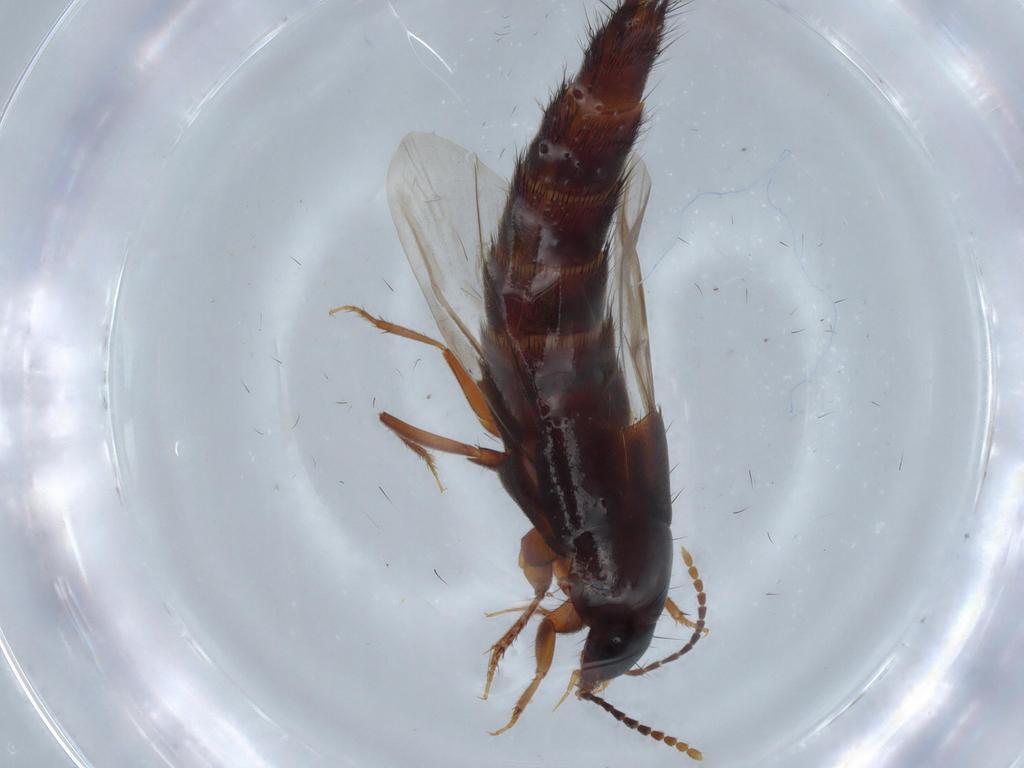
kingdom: Animalia
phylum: Arthropoda
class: Insecta
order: Coleoptera
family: Staphylinidae
